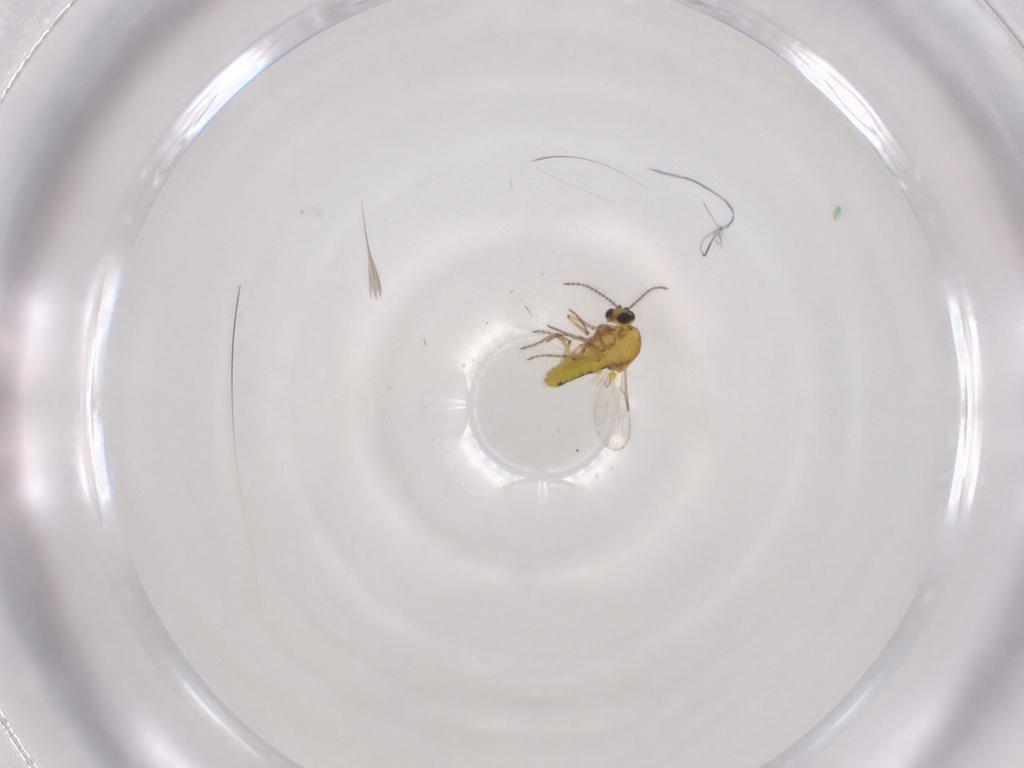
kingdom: Animalia
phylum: Arthropoda
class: Insecta
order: Diptera
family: Ceratopogonidae
